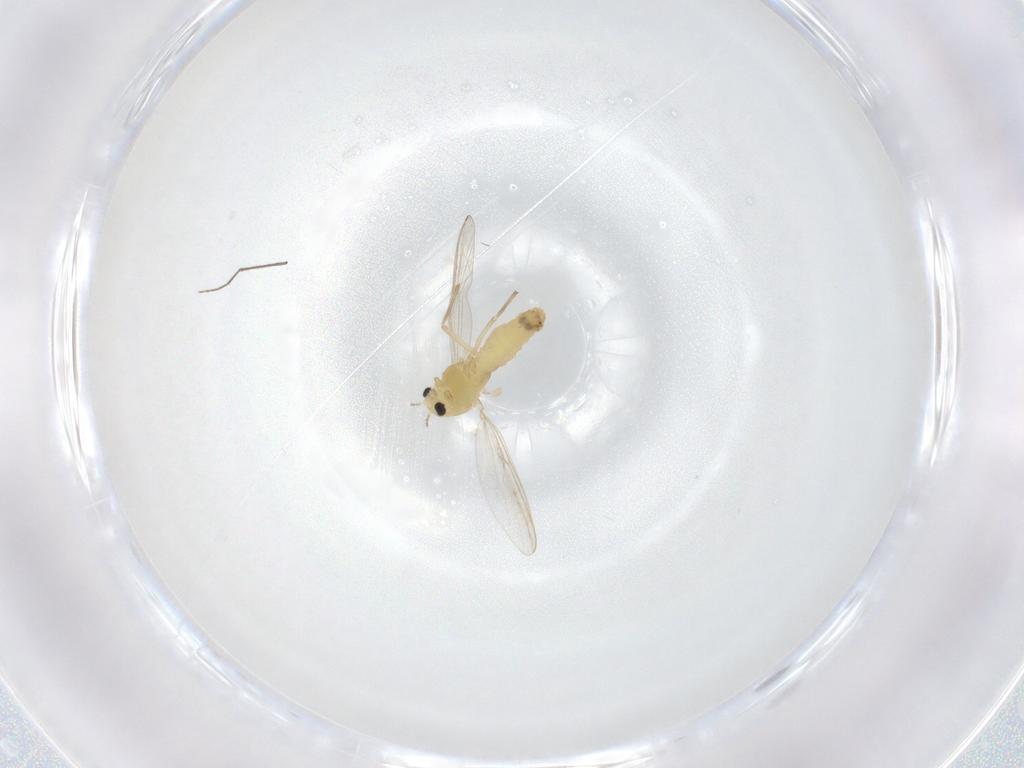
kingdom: Animalia
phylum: Arthropoda
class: Insecta
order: Diptera
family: Chironomidae
